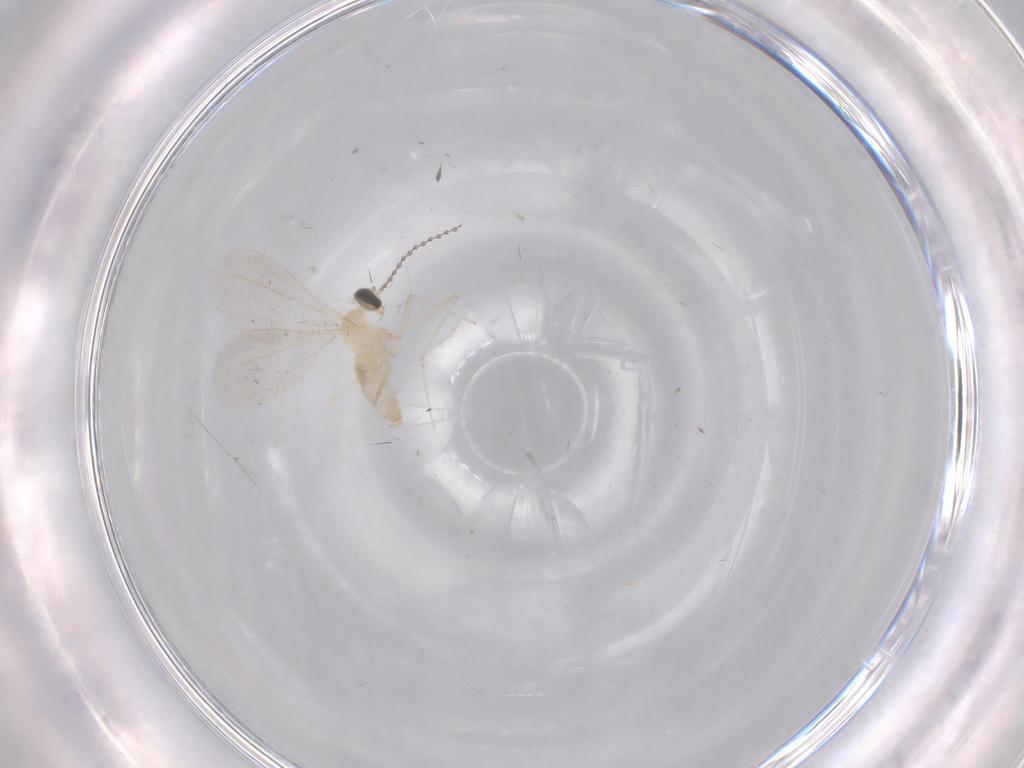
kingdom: Animalia
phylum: Arthropoda
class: Insecta
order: Diptera
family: Cecidomyiidae
